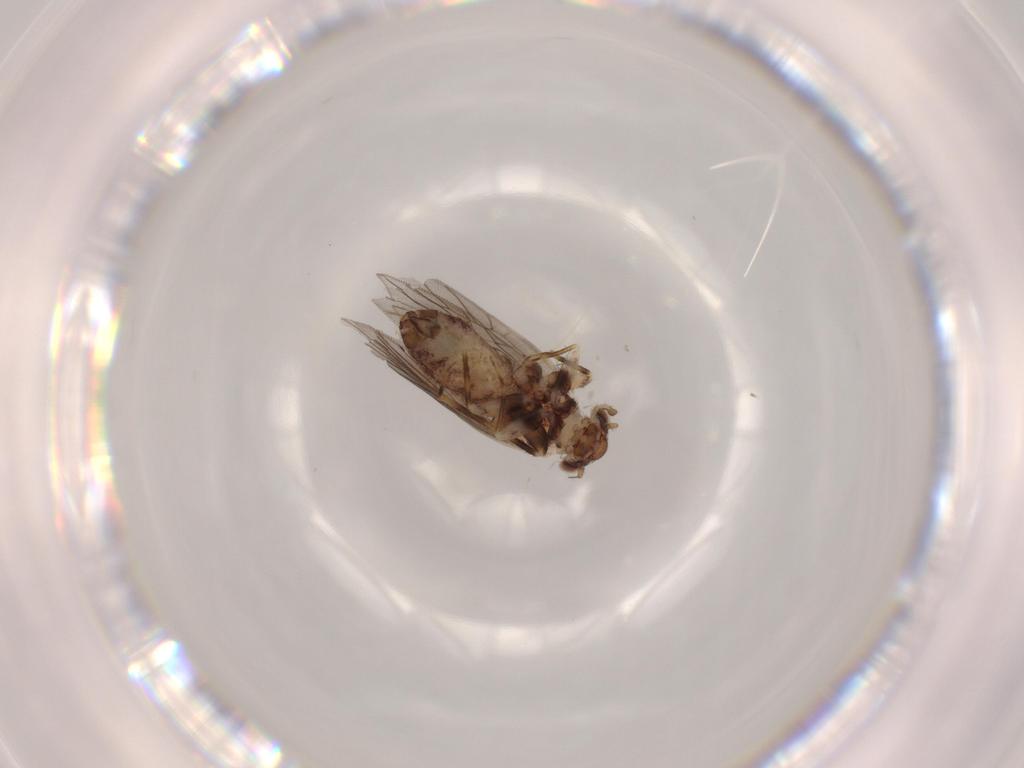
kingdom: Animalia
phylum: Arthropoda
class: Insecta
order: Psocodea
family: Lepidopsocidae
